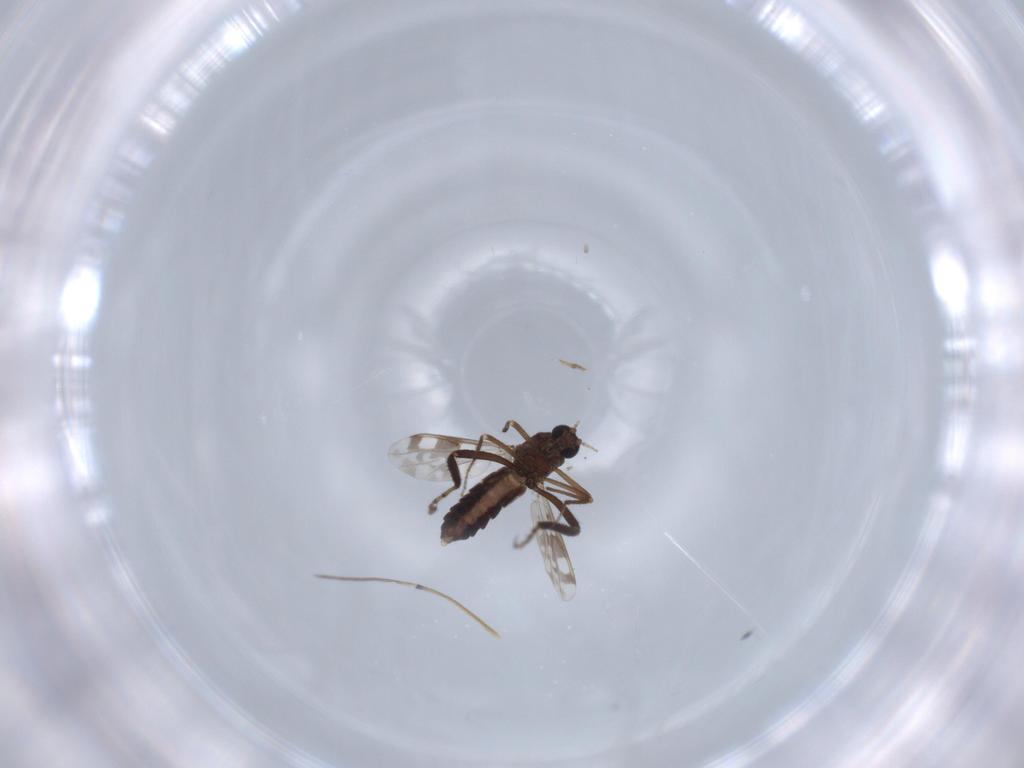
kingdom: Animalia
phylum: Arthropoda
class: Insecta
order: Diptera
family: Ceratopogonidae
